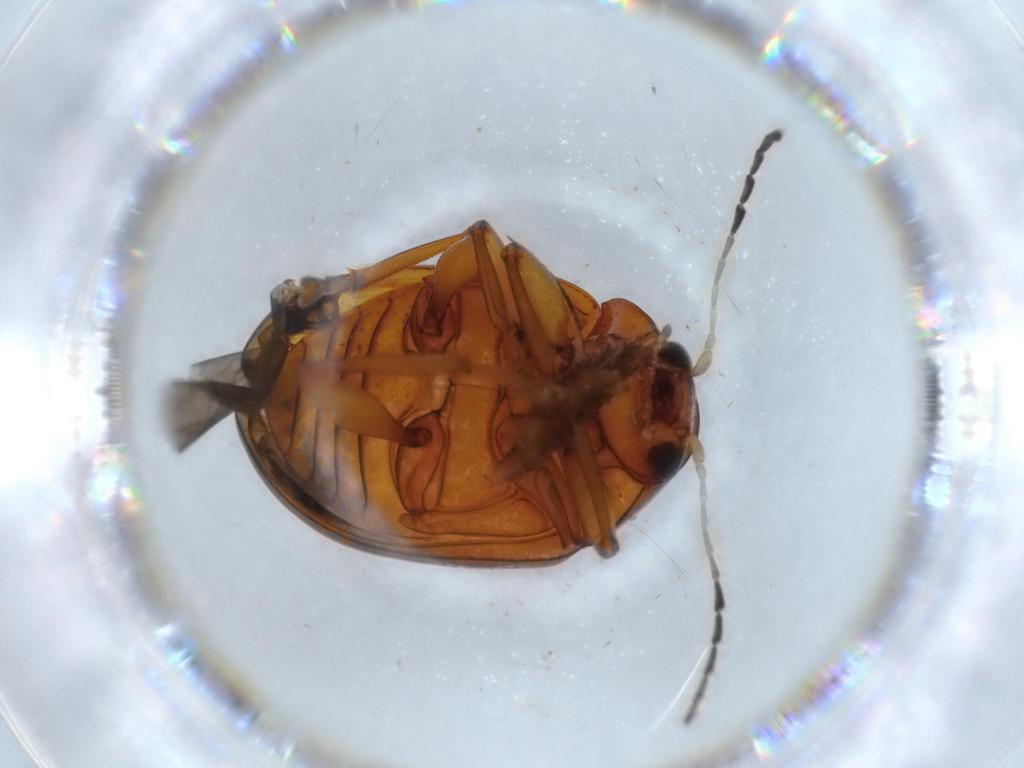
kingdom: Animalia
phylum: Arthropoda
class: Insecta
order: Coleoptera
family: Chrysomelidae
